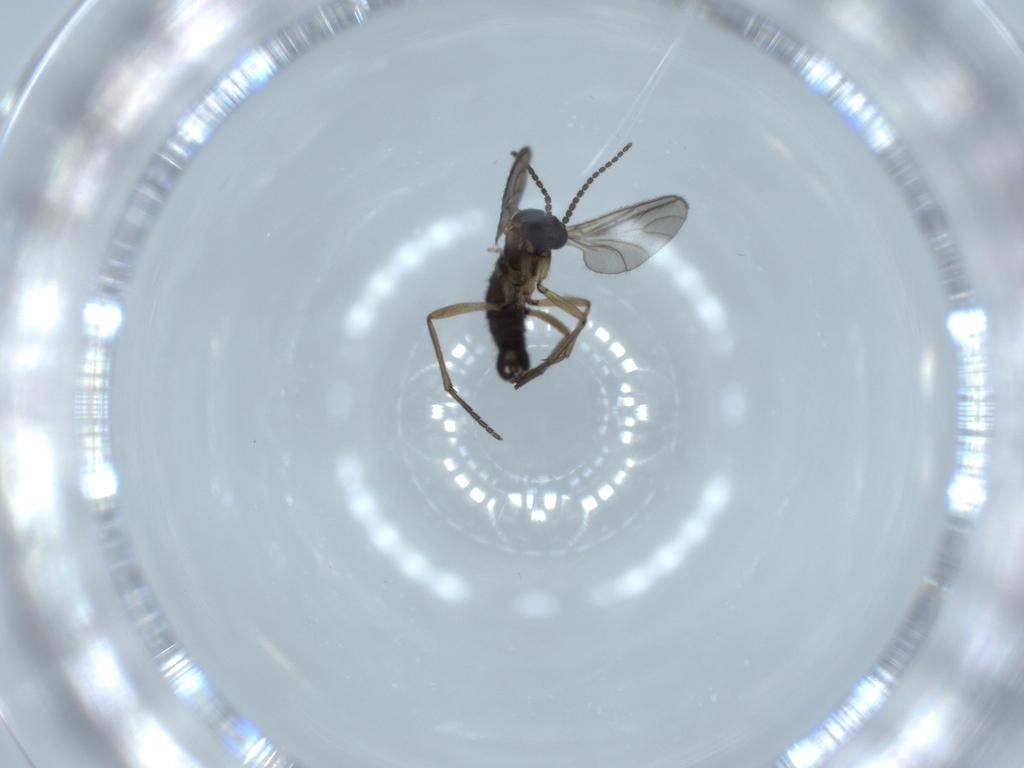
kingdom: Animalia
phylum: Arthropoda
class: Insecta
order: Diptera
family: Sciaridae
